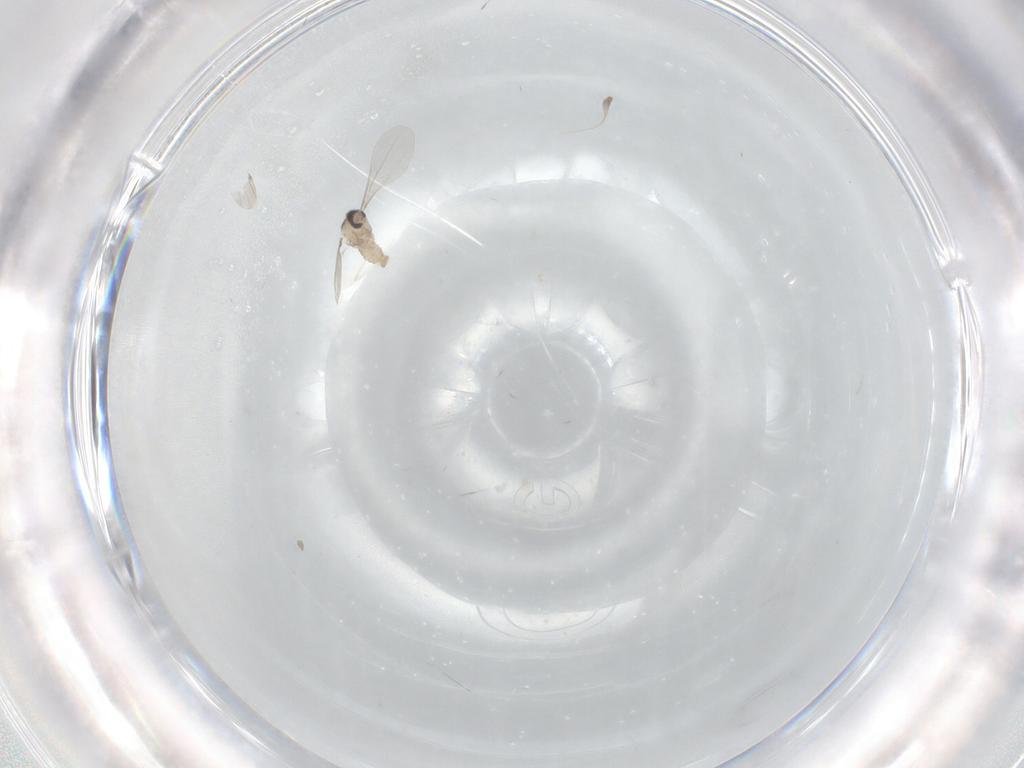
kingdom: Animalia
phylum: Arthropoda
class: Insecta
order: Diptera
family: Cecidomyiidae
